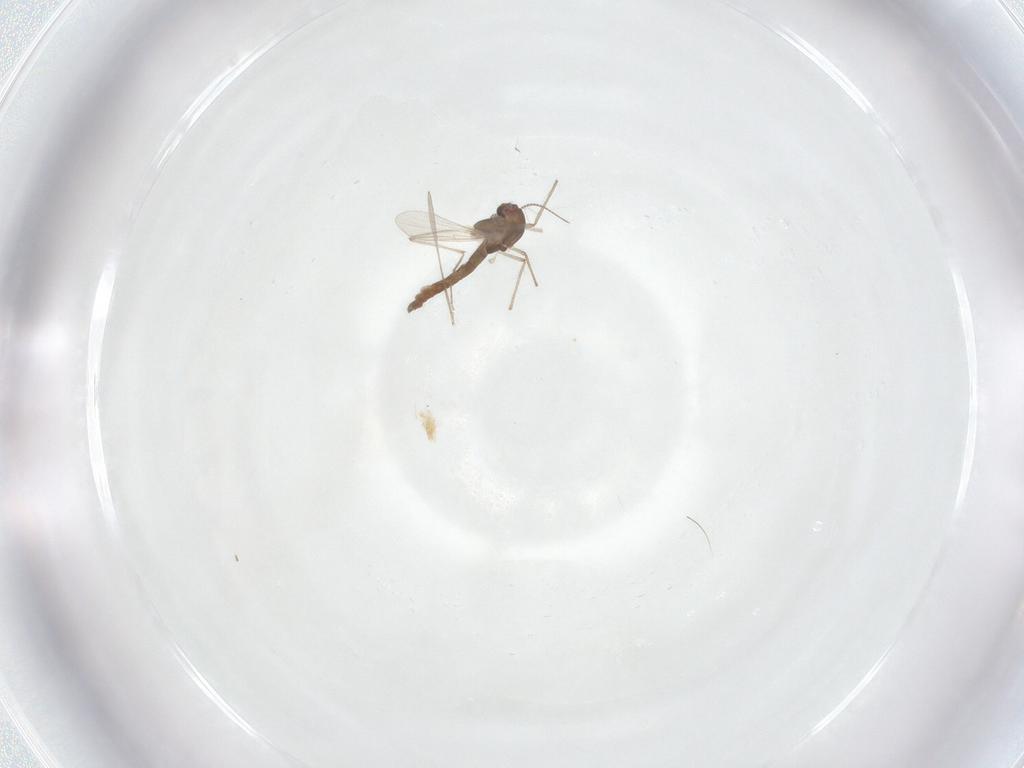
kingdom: Animalia
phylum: Arthropoda
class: Insecta
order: Diptera
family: Chironomidae
